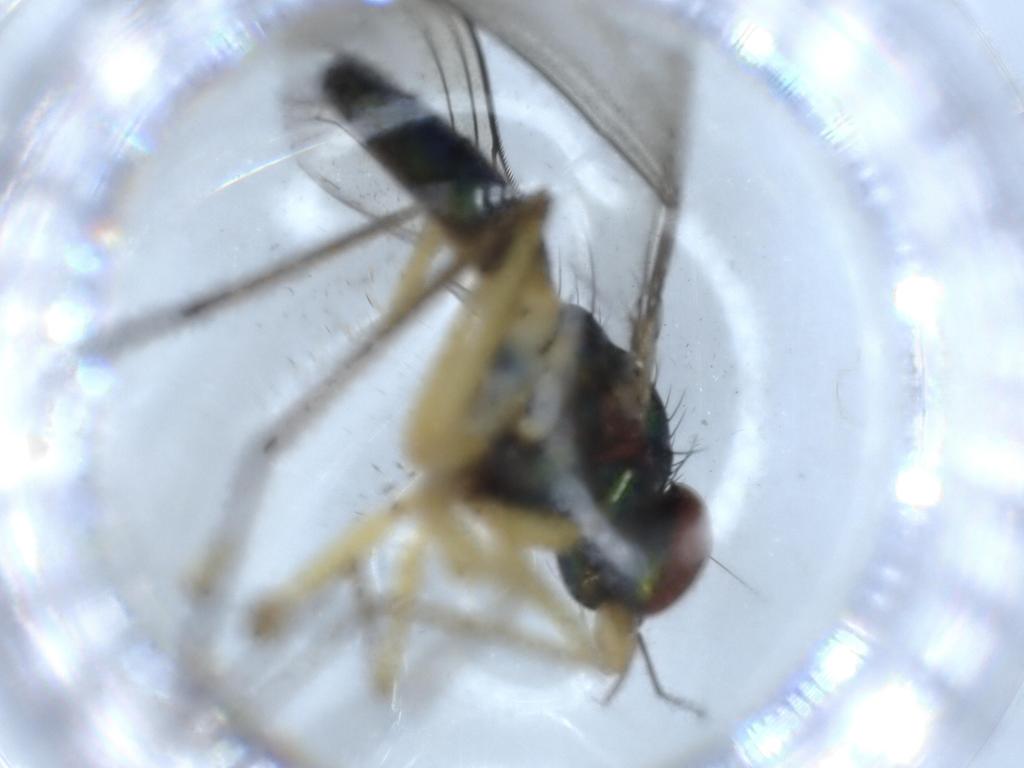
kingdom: Animalia
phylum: Arthropoda
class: Insecta
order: Diptera
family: Dolichopodidae
